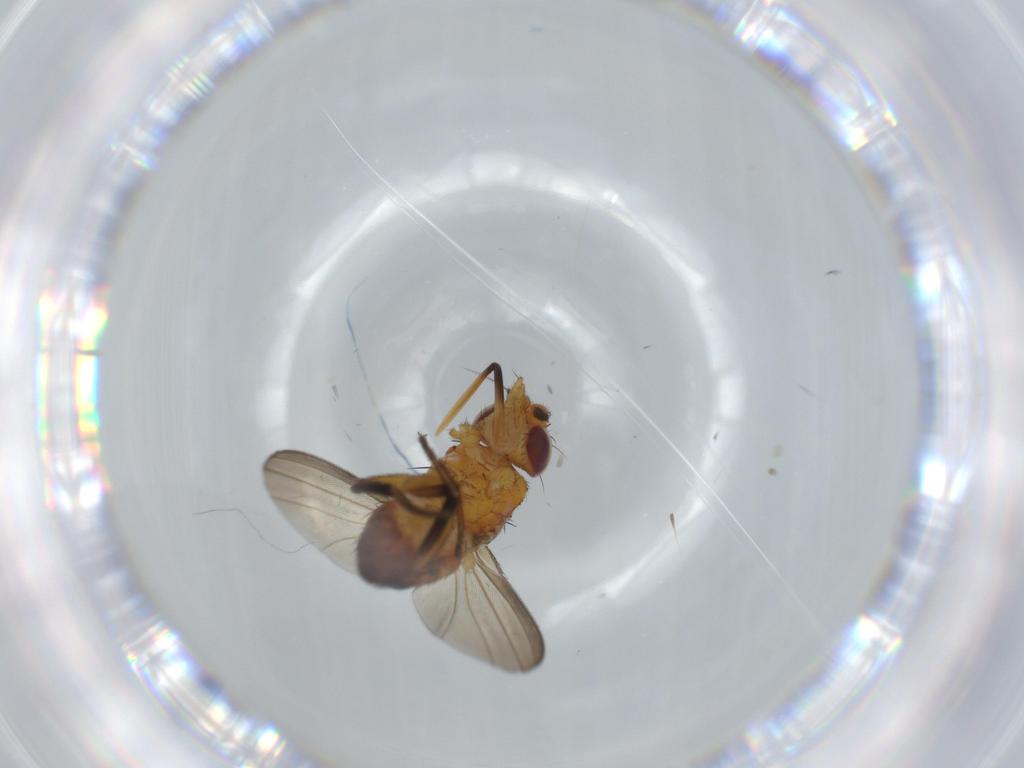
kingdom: Animalia
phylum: Arthropoda
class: Insecta
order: Diptera
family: Milichiidae
